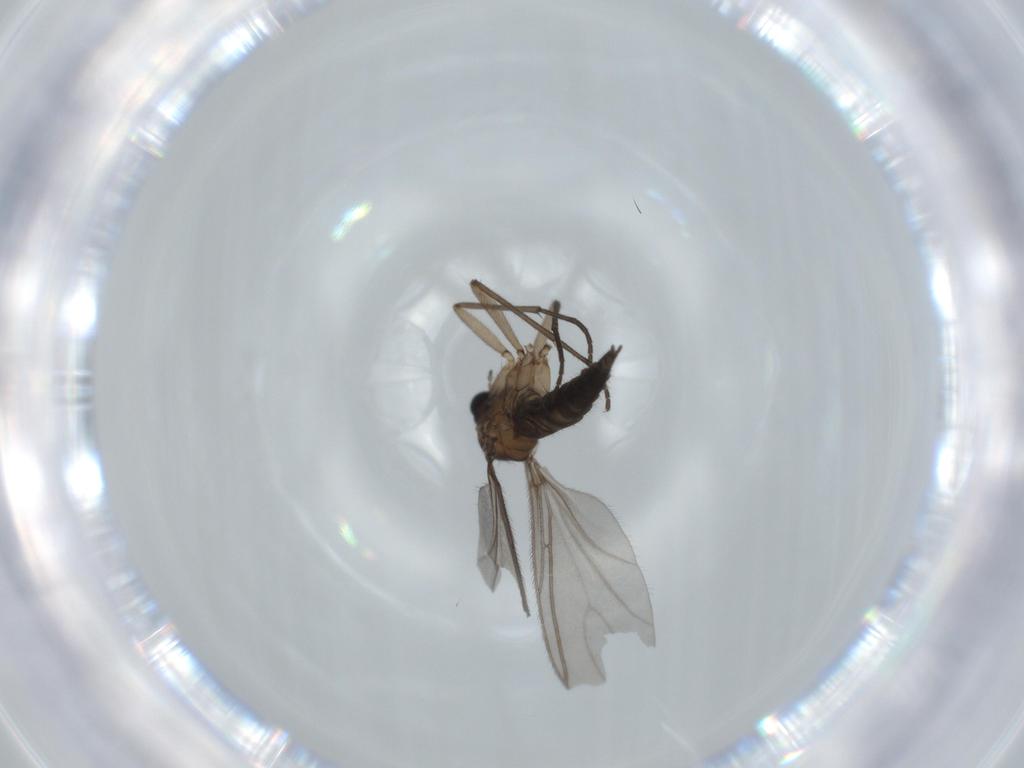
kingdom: Animalia
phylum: Arthropoda
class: Insecta
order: Diptera
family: Sciaridae
